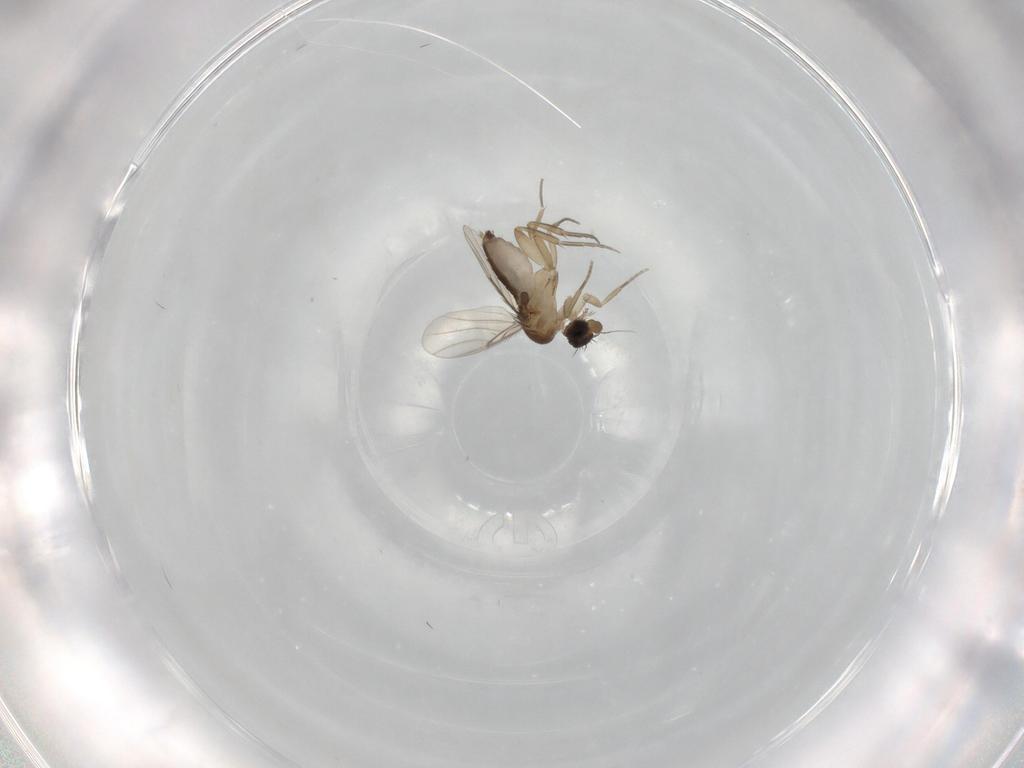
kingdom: Animalia
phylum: Arthropoda
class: Insecta
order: Diptera
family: Phoridae
